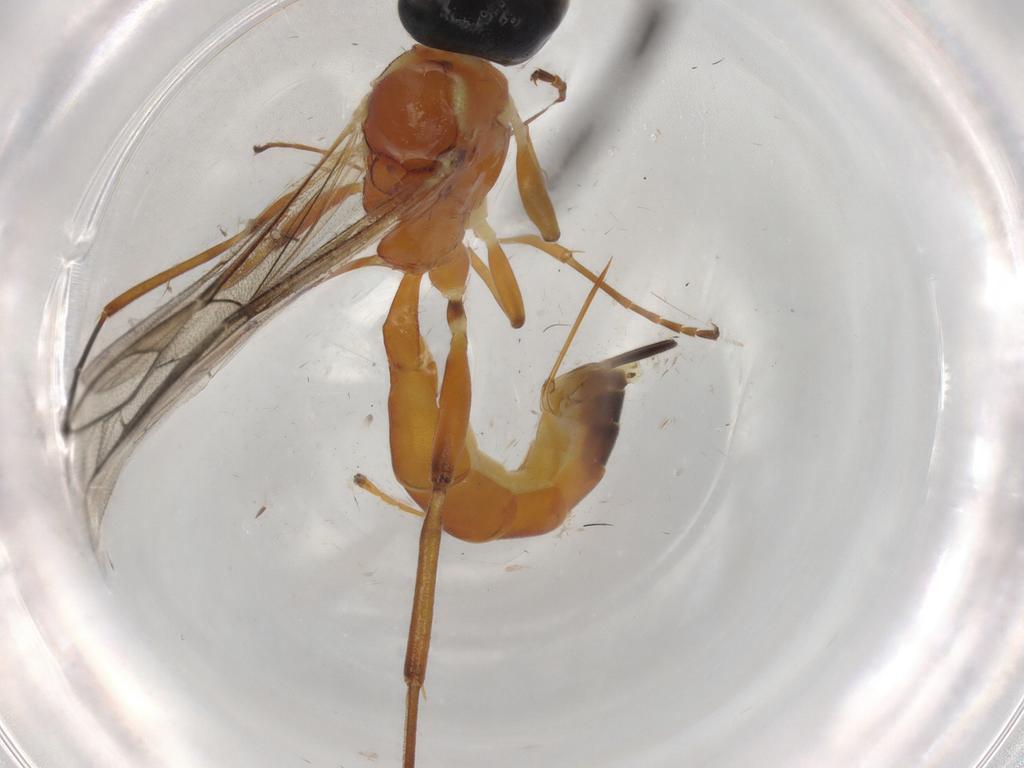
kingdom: Animalia
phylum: Arthropoda
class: Insecta
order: Hymenoptera
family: Braconidae
